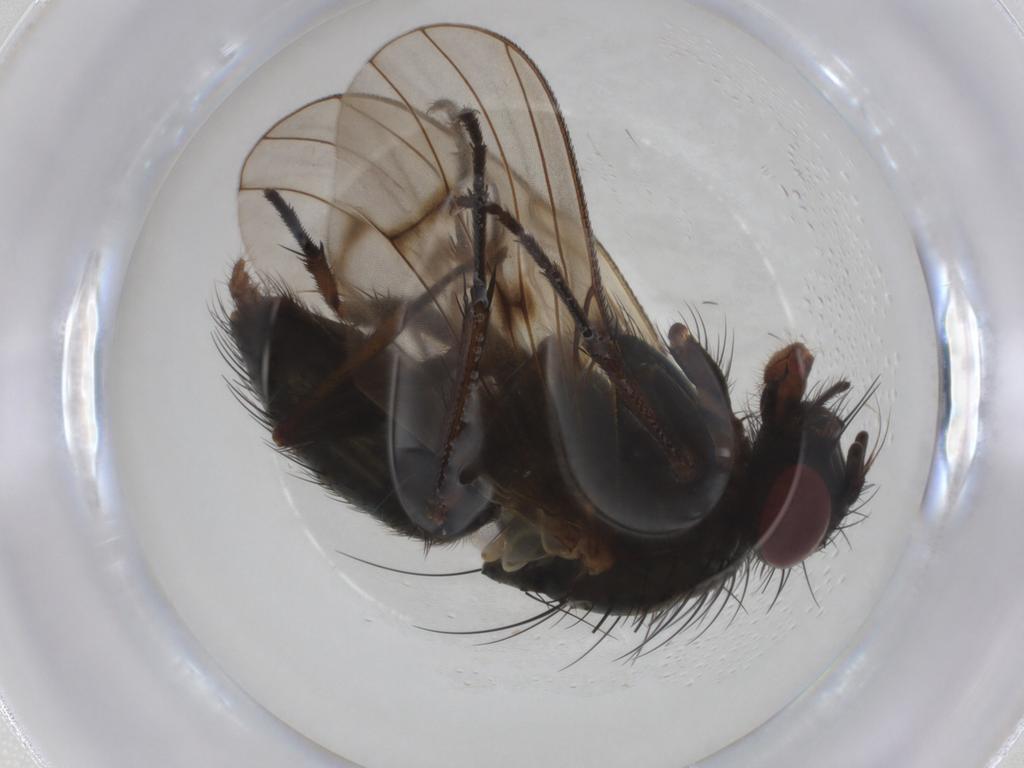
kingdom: Animalia
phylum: Arthropoda
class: Insecta
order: Diptera
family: Muscidae
